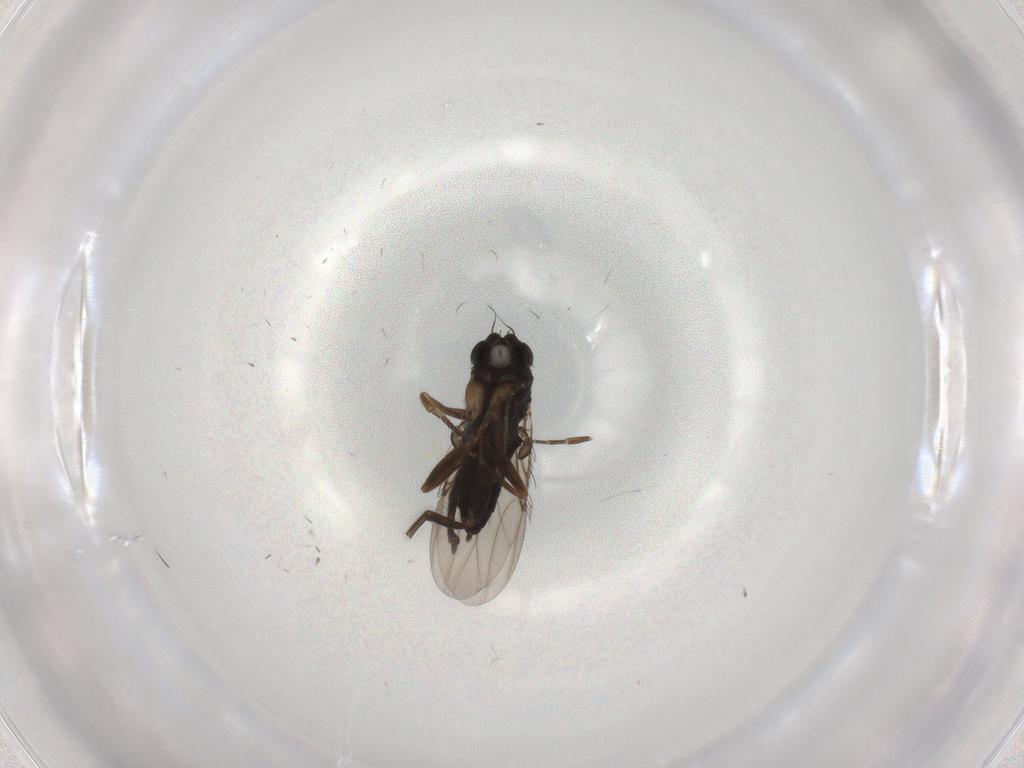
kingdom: Animalia
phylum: Arthropoda
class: Insecta
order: Diptera
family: Phoridae
